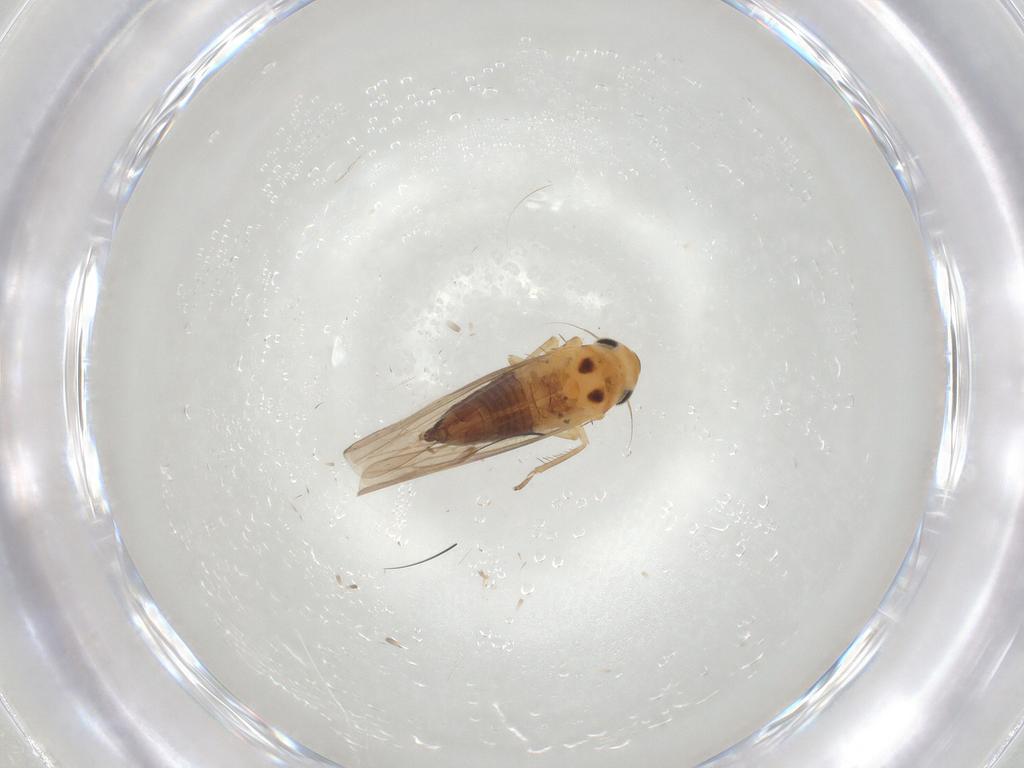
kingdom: Animalia
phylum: Arthropoda
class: Insecta
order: Hemiptera
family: Cicadellidae
